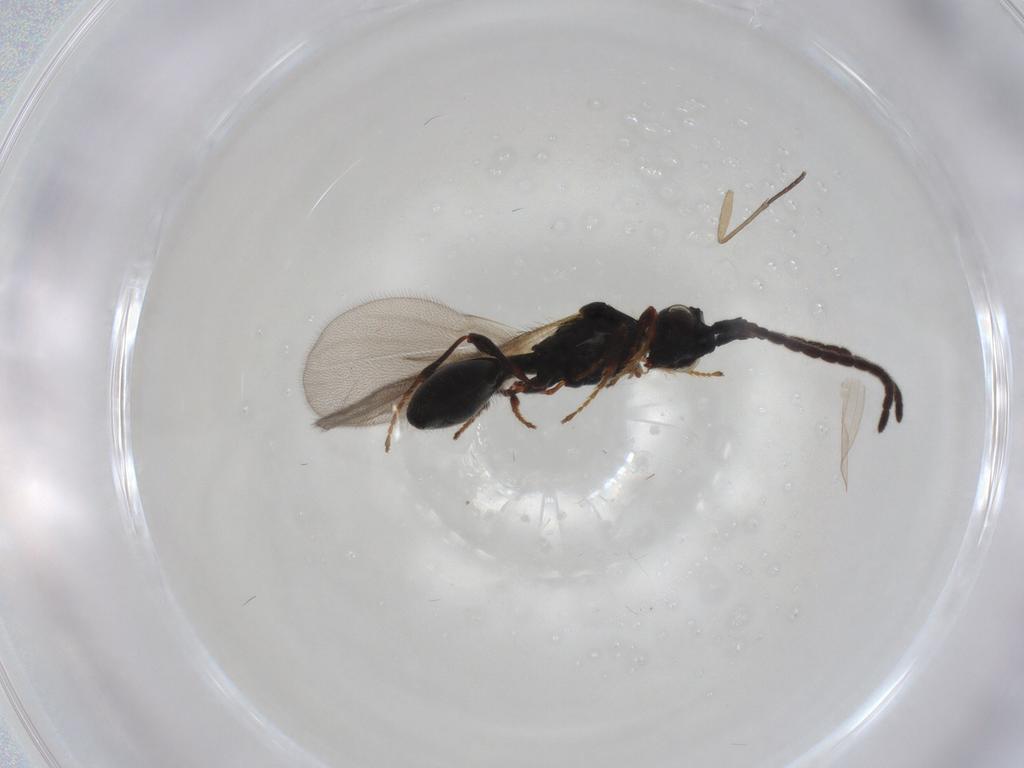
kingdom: Animalia
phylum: Arthropoda
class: Insecta
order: Hymenoptera
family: Diapriidae
